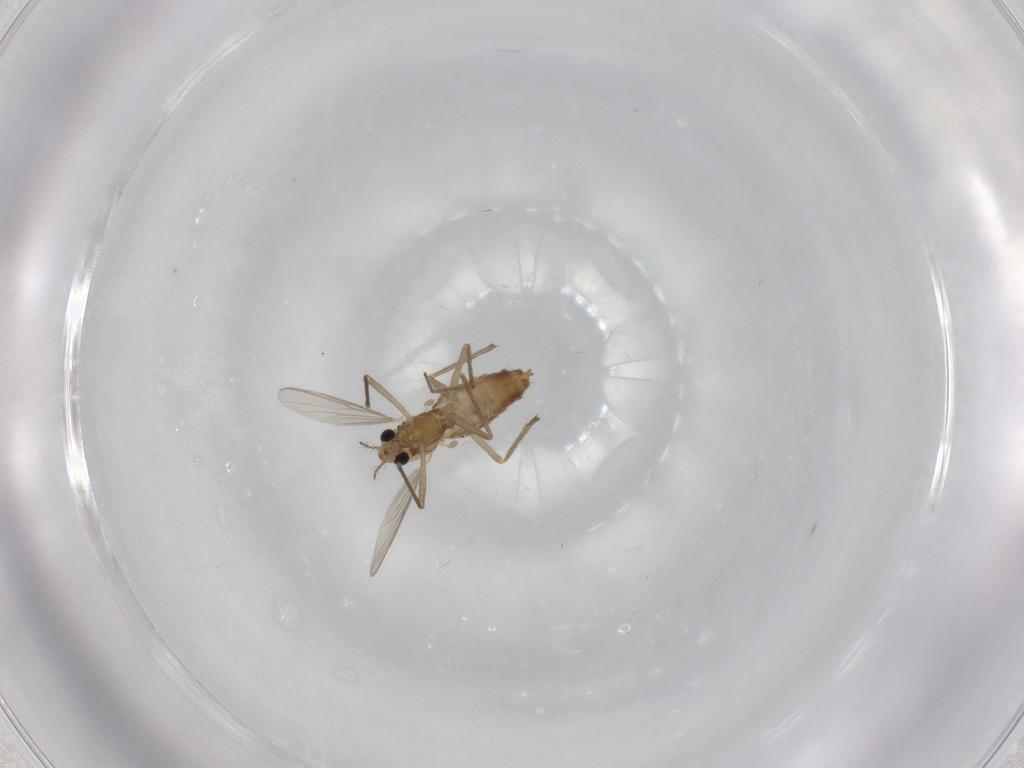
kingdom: Animalia
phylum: Arthropoda
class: Insecta
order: Diptera
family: Chironomidae
